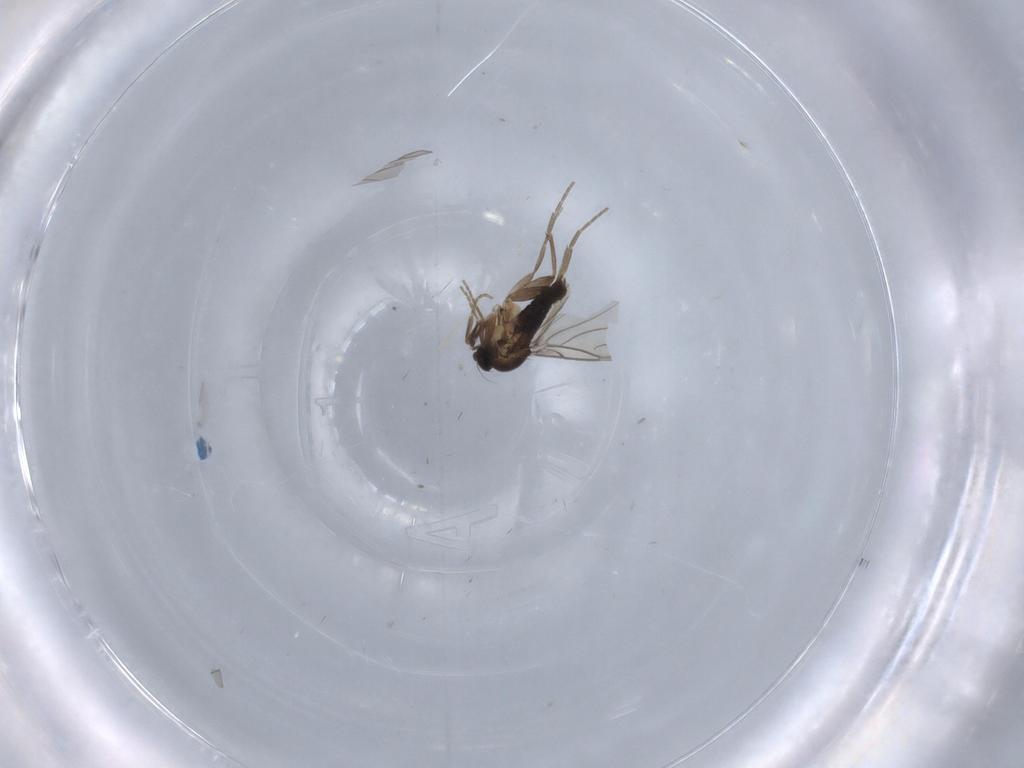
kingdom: Animalia
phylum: Arthropoda
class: Insecta
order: Diptera
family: Phoridae
